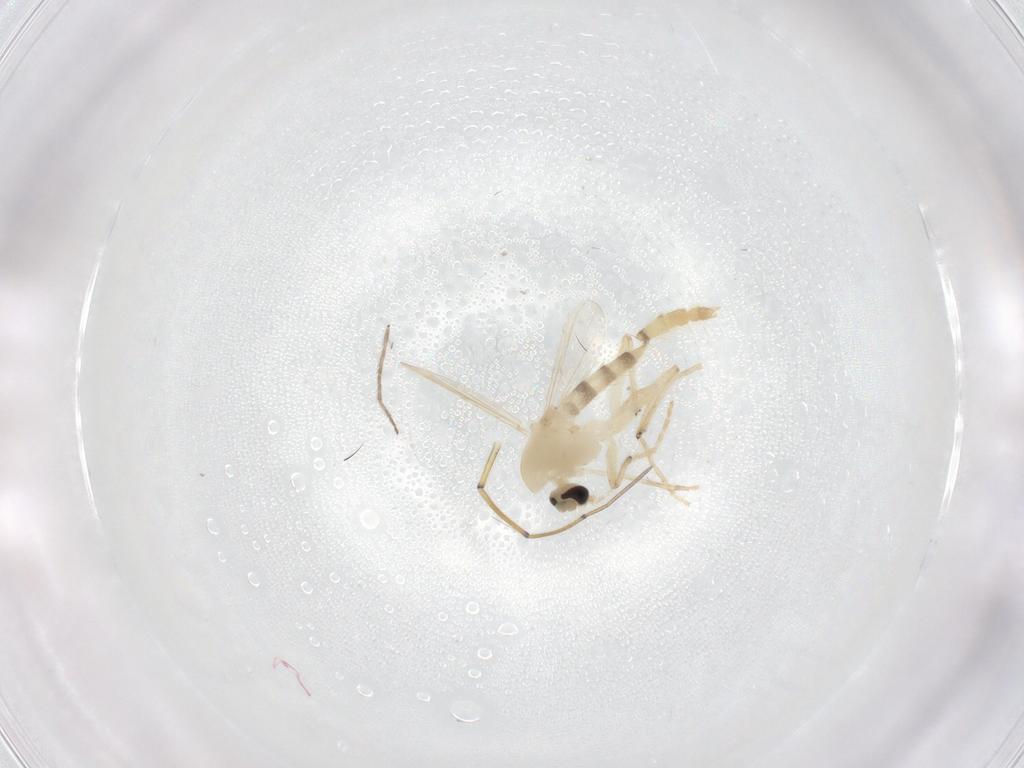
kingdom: Animalia
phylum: Arthropoda
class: Insecta
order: Diptera
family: Chironomidae
